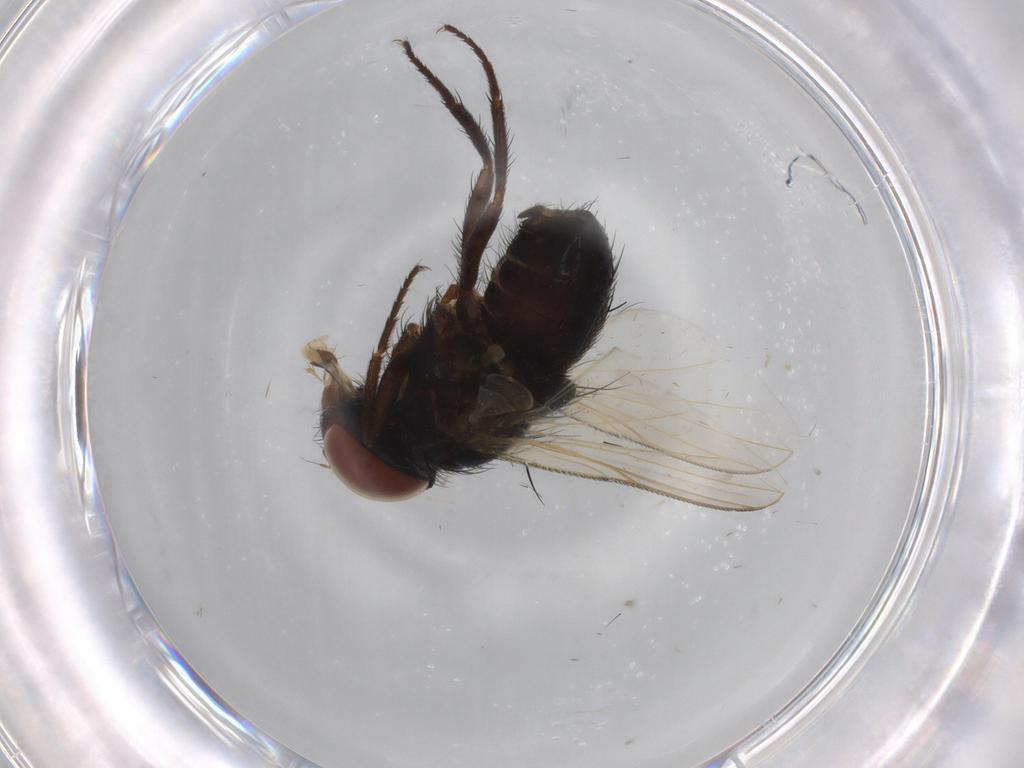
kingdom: Animalia
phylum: Arthropoda
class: Insecta
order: Diptera
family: Tachinidae
